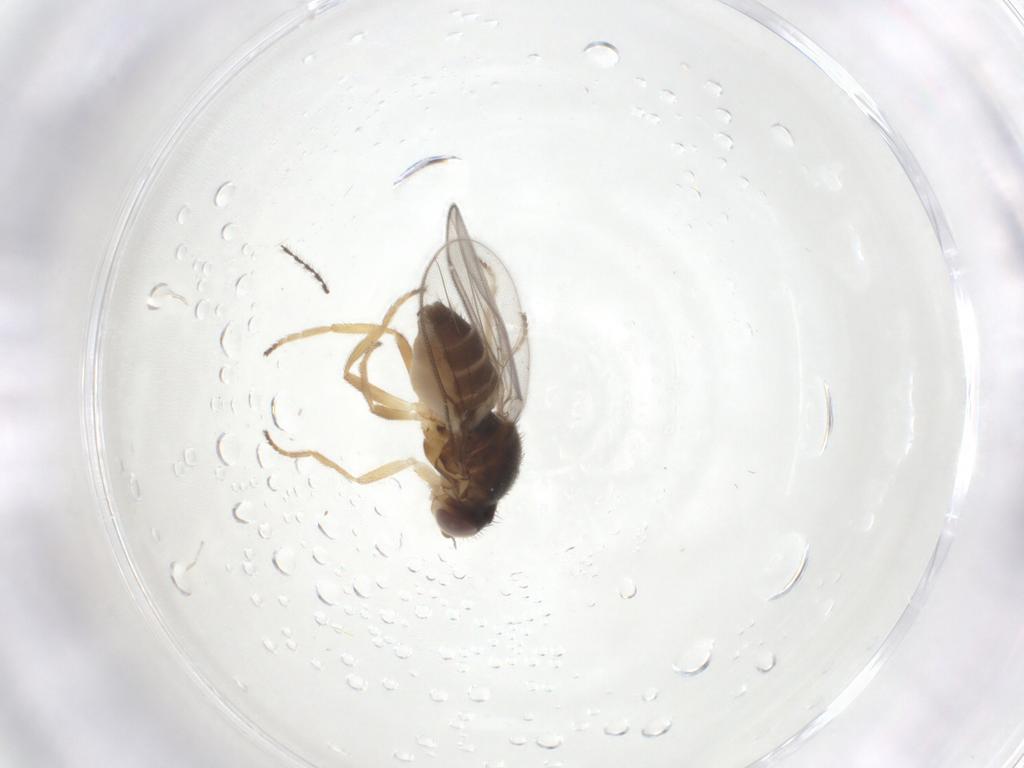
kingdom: Animalia
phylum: Arthropoda
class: Insecta
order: Diptera
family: Chloropidae
